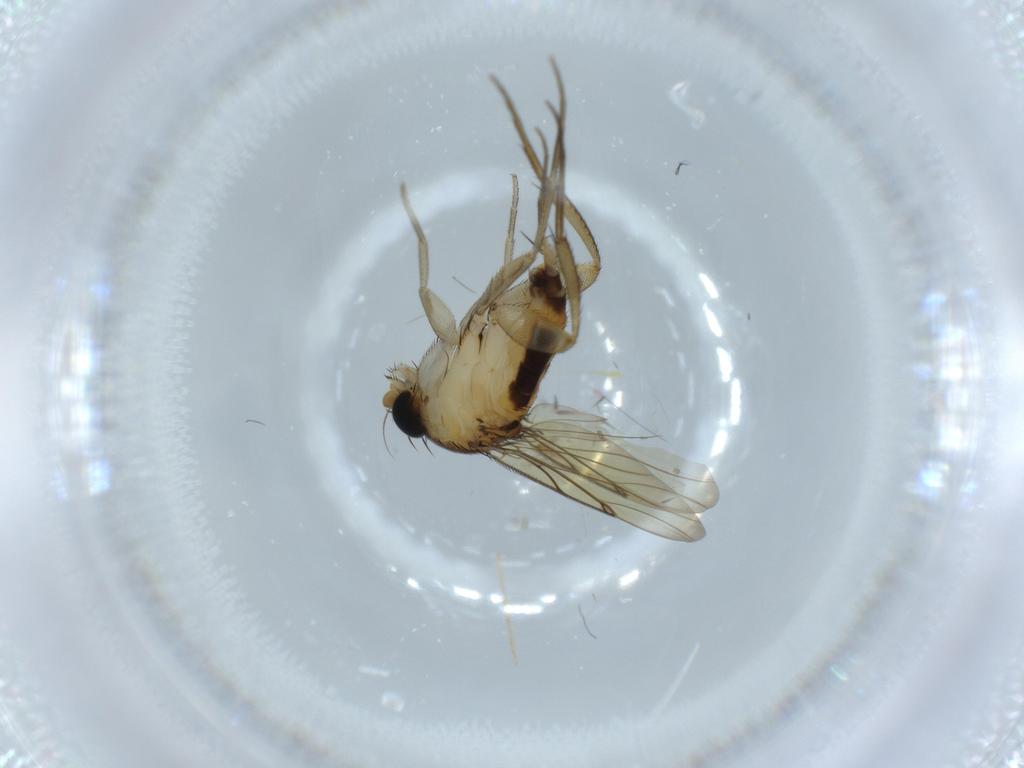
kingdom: Animalia
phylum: Arthropoda
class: Insecta
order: Diptera
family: Phoridae
